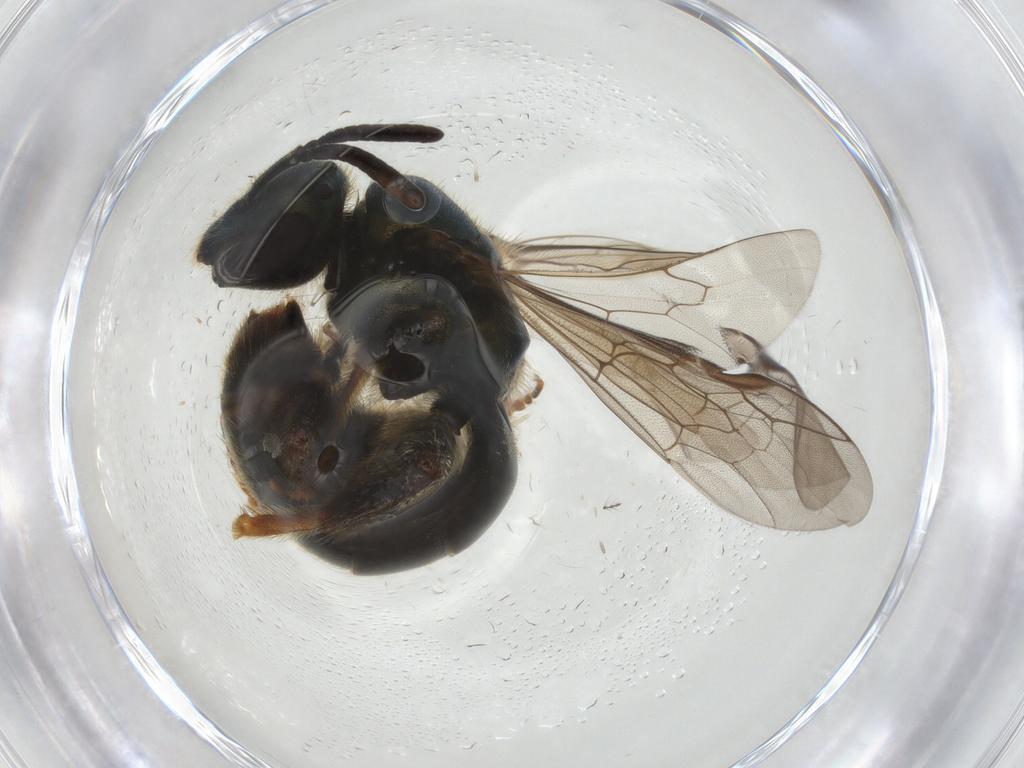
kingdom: Animalia
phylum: Arthropoda
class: Insecta
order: Hymenoptera
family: Halictidae
